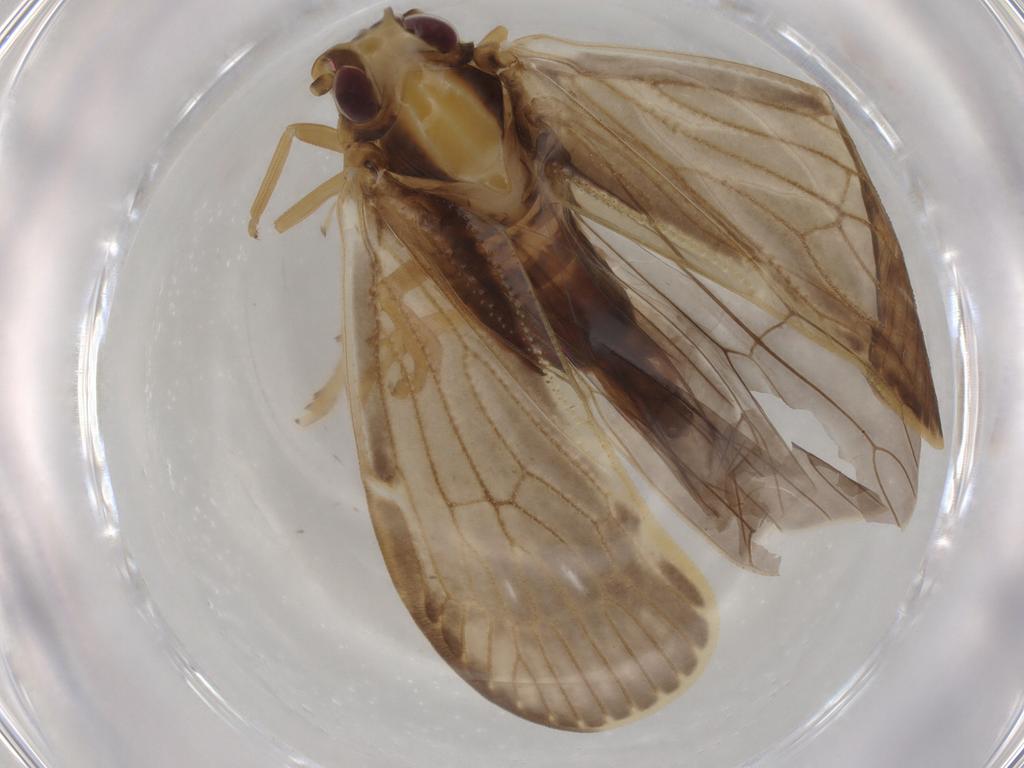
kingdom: Animalia
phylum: Arthropoda
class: Insecta
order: Hemiptera
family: Cixiidae
